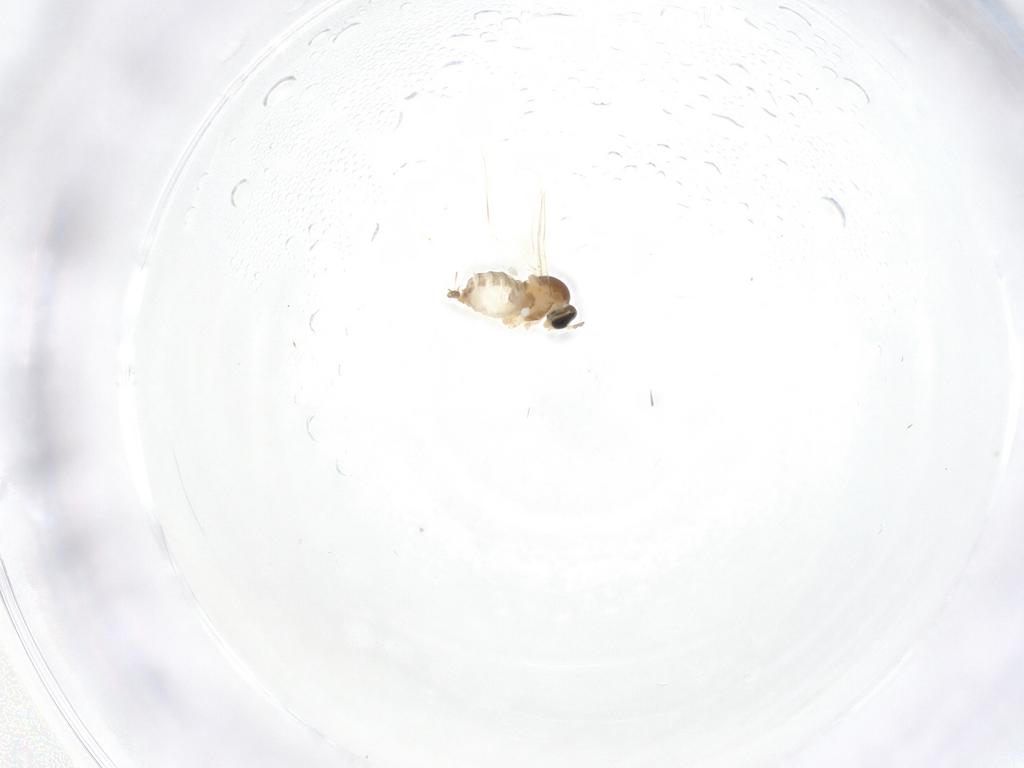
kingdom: Animalia
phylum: Arthropoda
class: Insecta
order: Diptera
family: Cecidomyiidae
